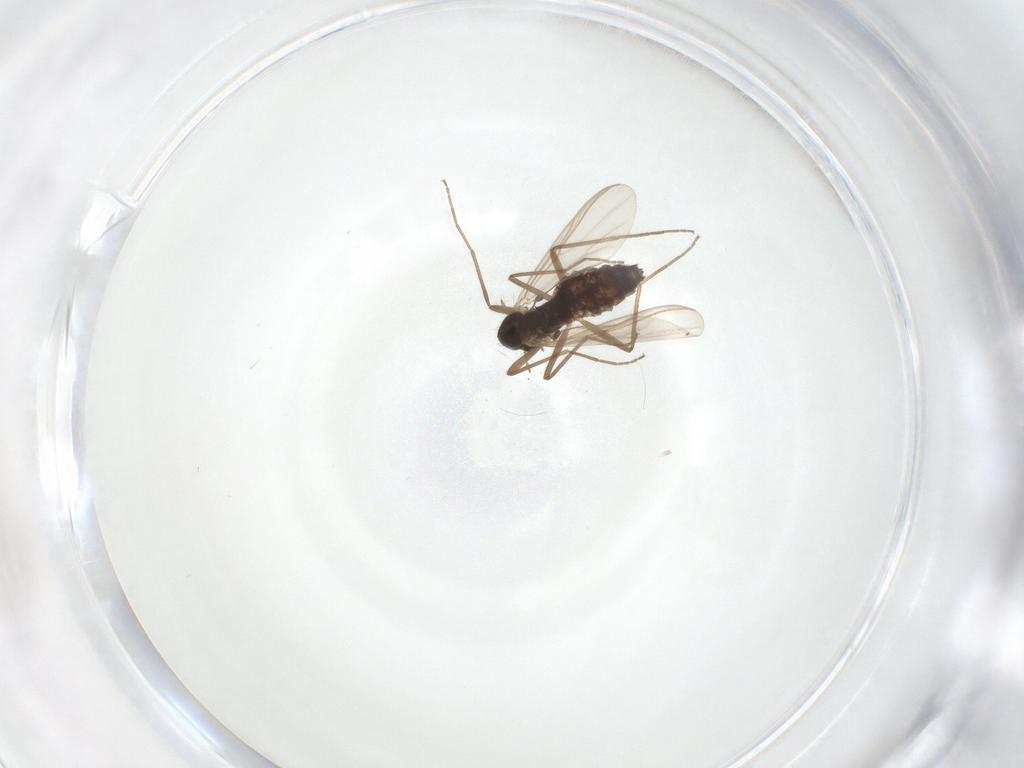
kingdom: Animalia
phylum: Arthropoda
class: Insecta
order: Diptera
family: Chironomidae
